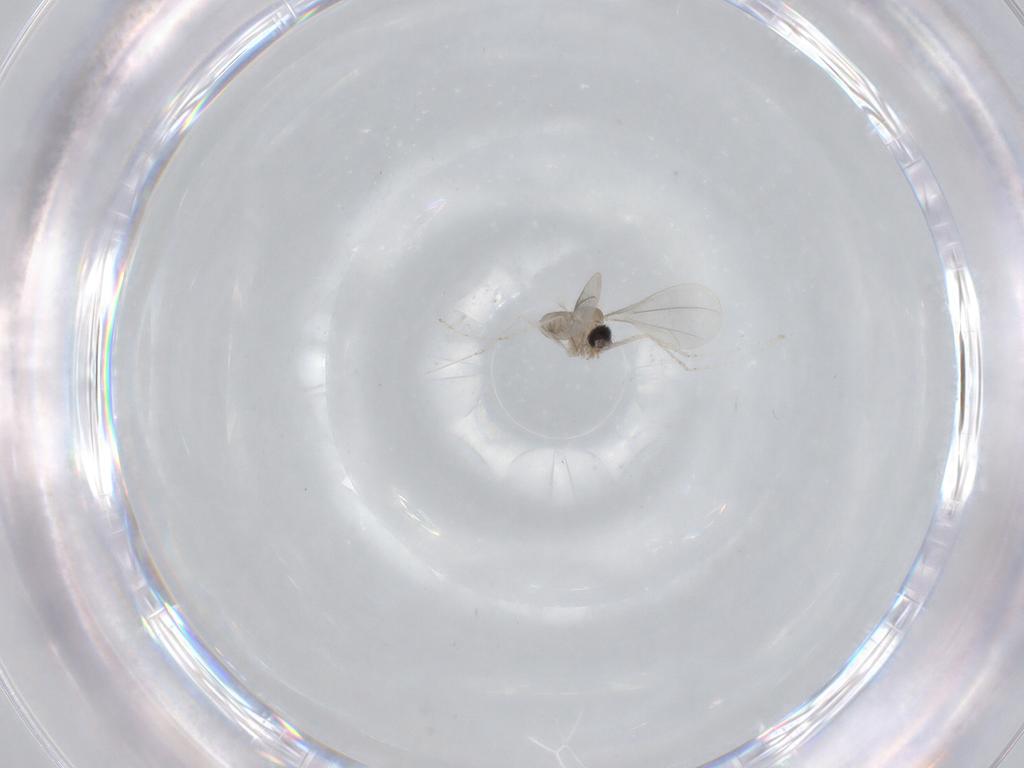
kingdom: Animalia
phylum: Arthropoda
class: Insecta
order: Diptera
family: Cecidomyiidae
